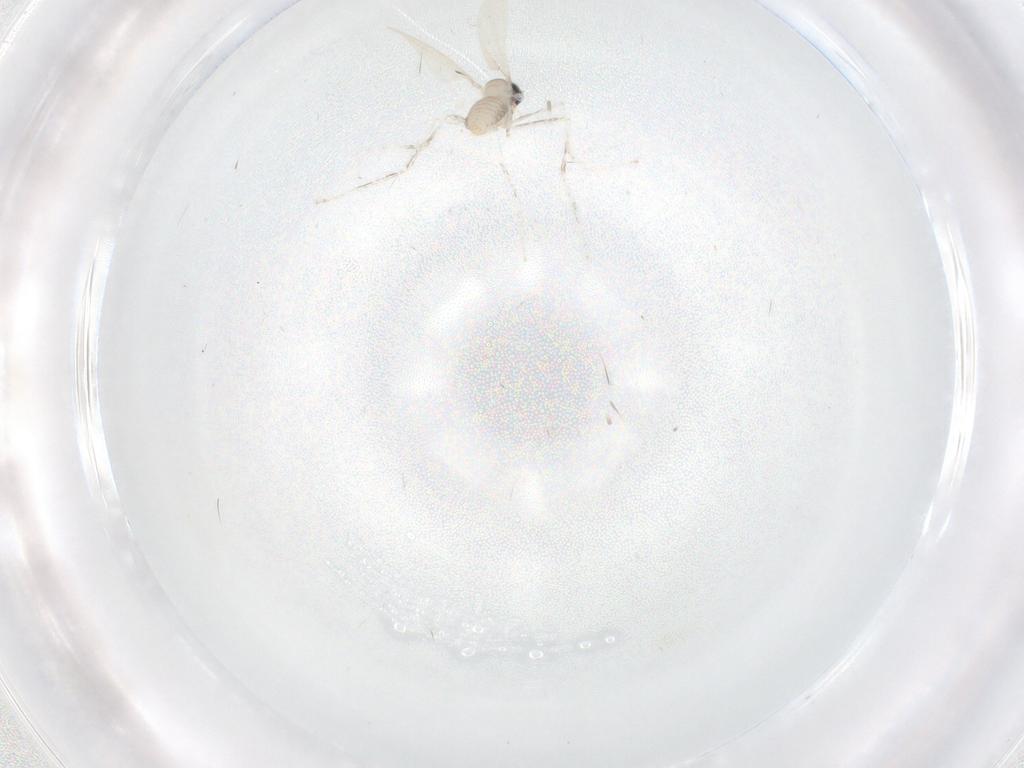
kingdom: Animalia
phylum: Arthropoda
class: Insecta
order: Diptera
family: Cecidomyiidae
